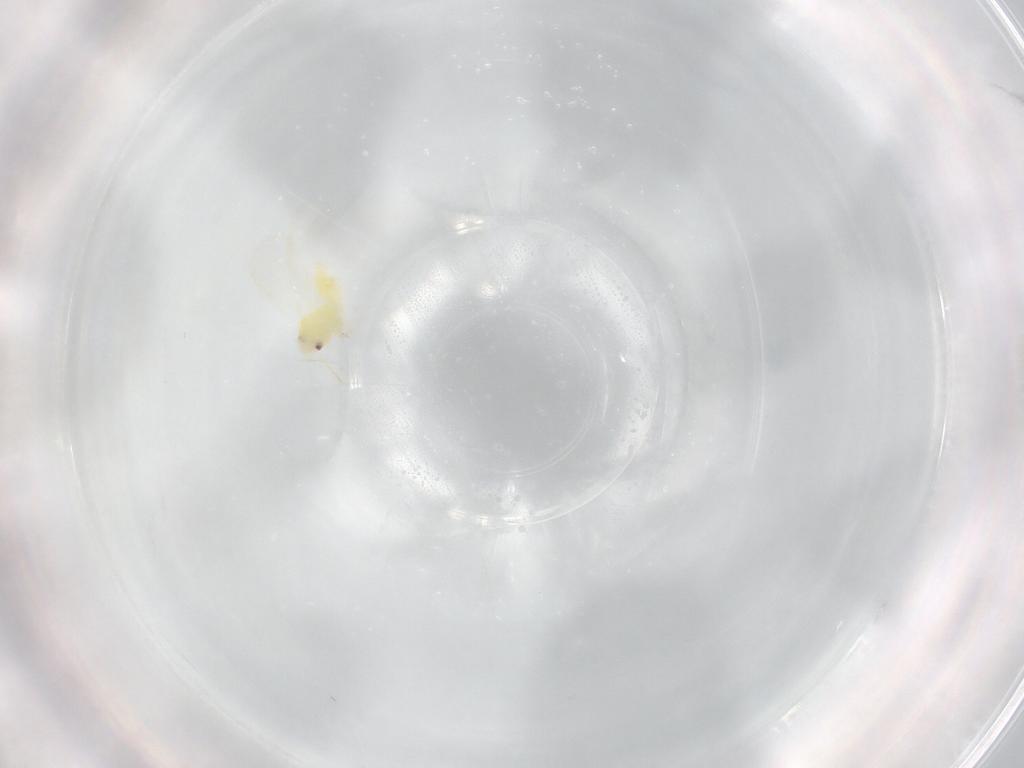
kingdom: Animalia
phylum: Arthropoda
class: Insecta
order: Hemiptera
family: Aleyrodidae
